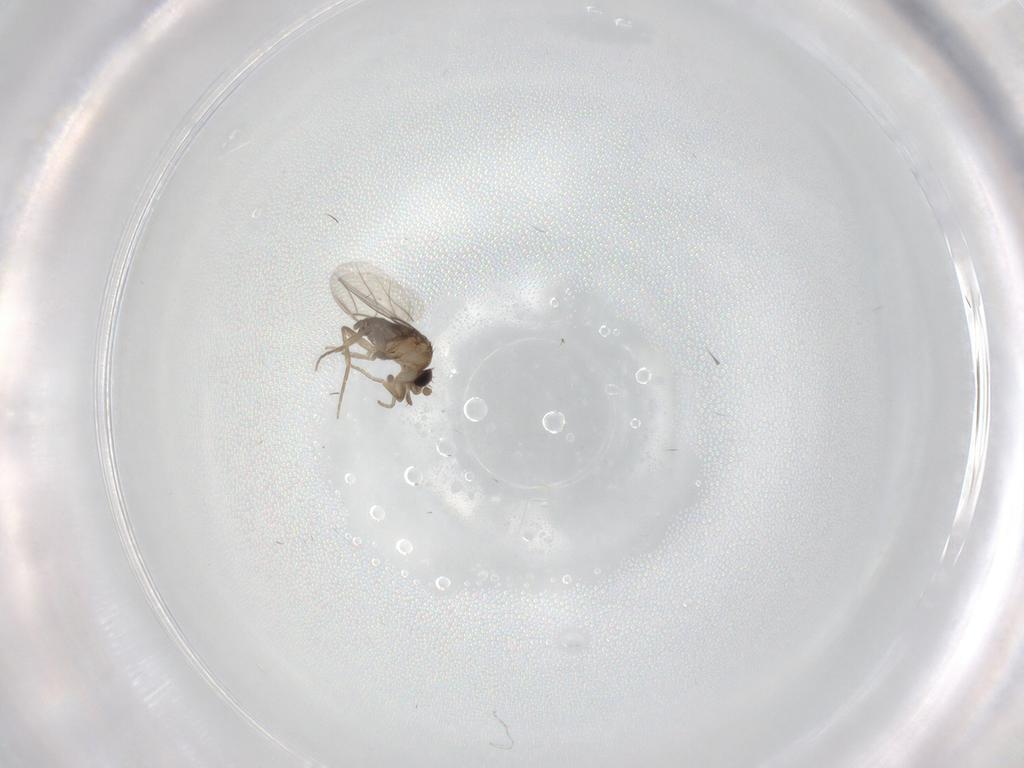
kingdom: Animalia
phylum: Arthropoda
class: Insecta
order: Diptera
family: Phoridae
